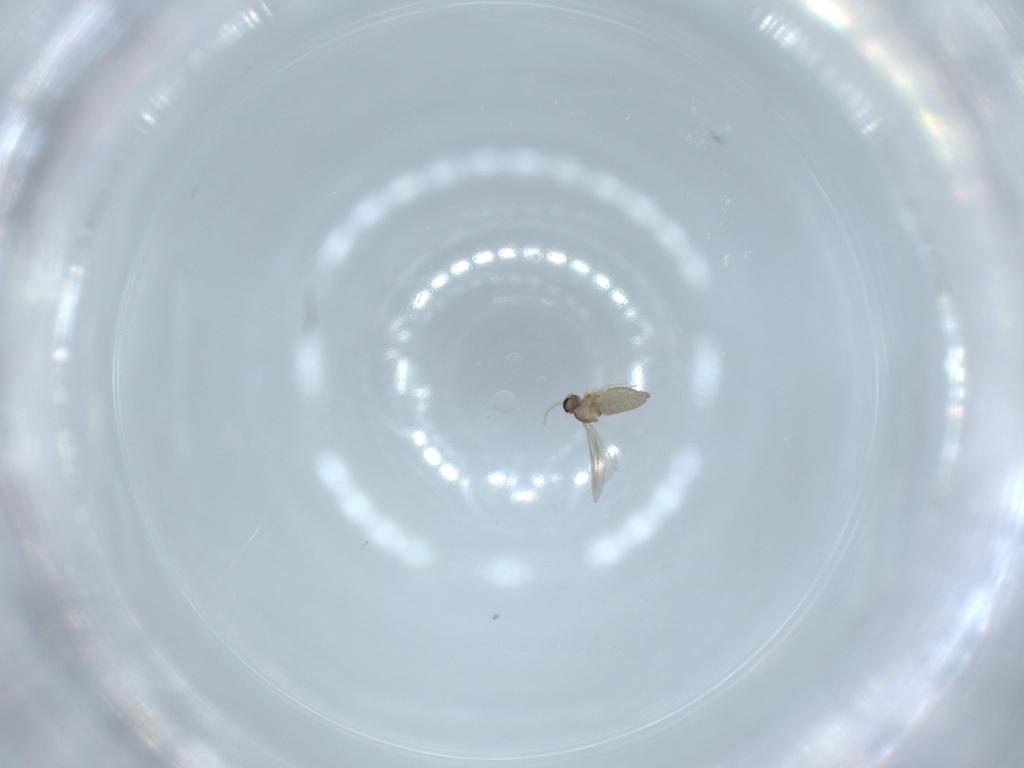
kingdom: Animalia
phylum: Arthropoda
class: Insecta
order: Diptera
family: Cecidomyiidae
